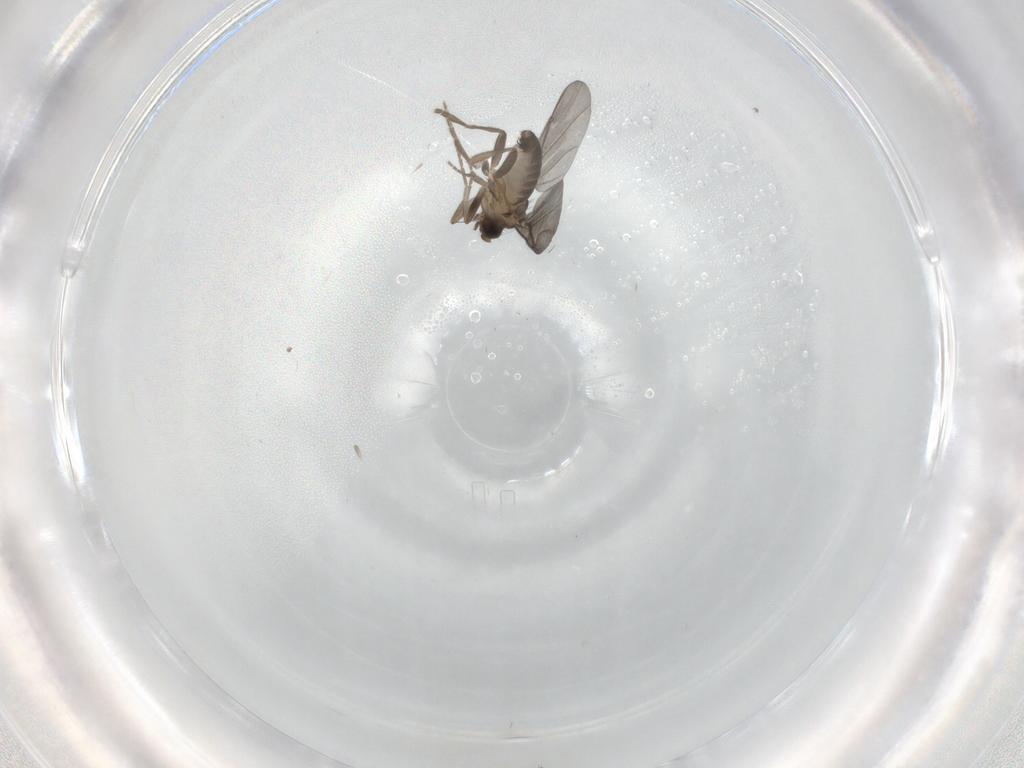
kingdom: Animalia
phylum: Arthropoda
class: Insecta
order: Diptera
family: Phoridae
